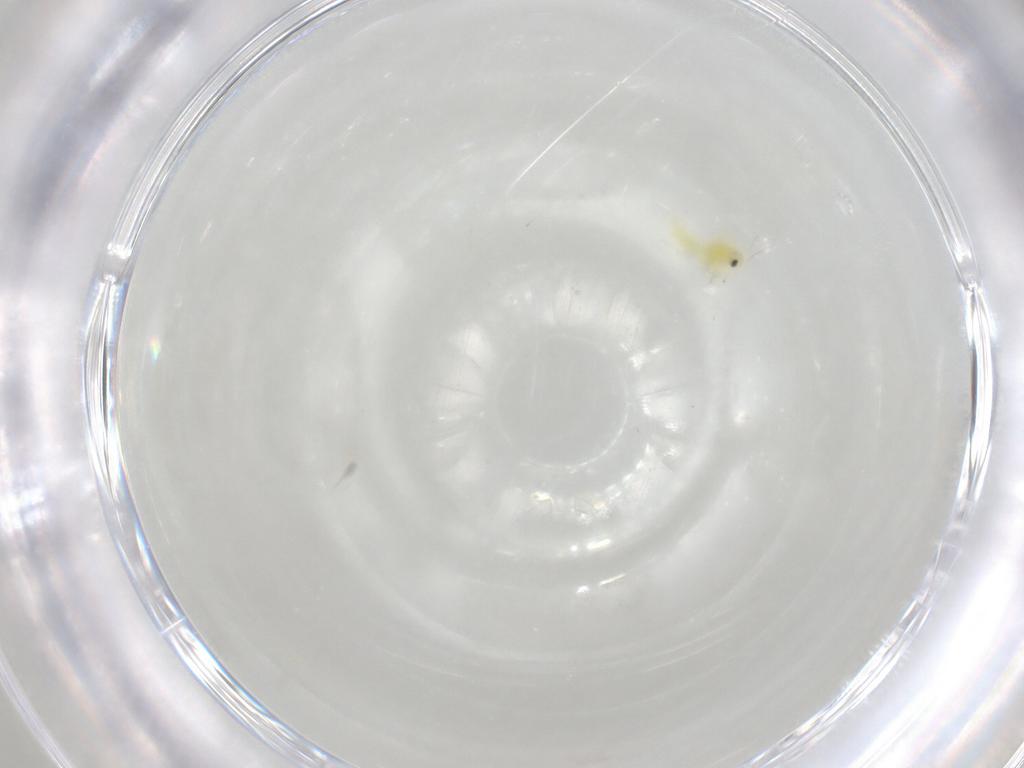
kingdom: Animalia
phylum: Arthropoda
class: Insecta
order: Hemiptera
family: Aleyrodidae
